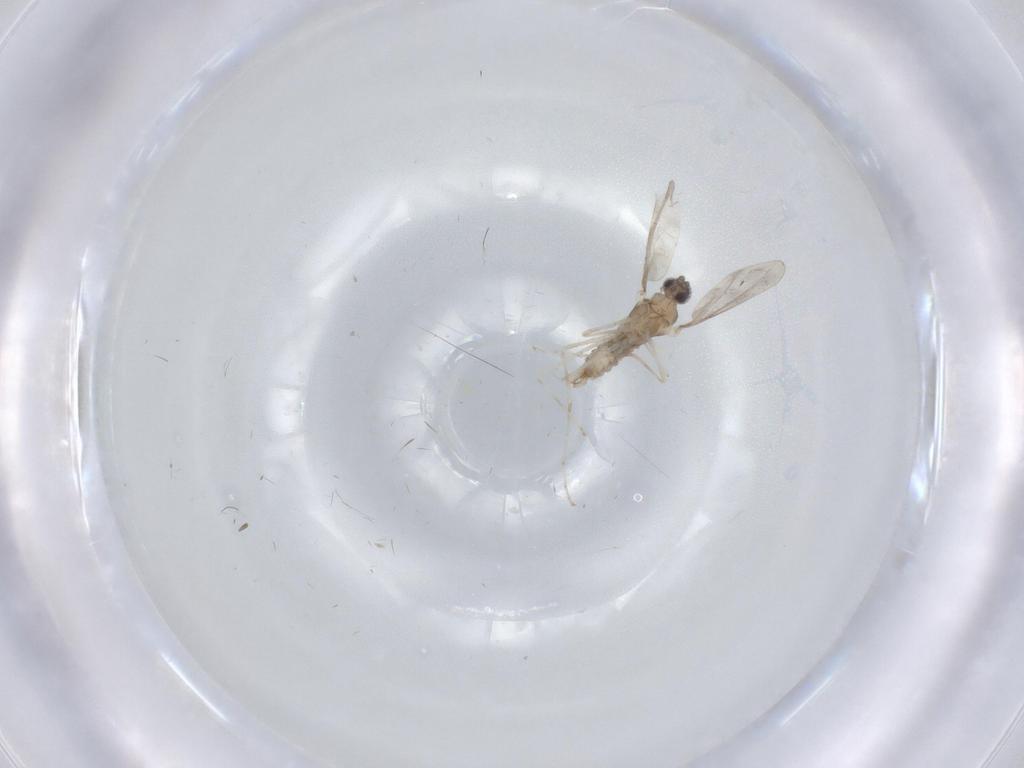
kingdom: Animalia
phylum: Arthropoda
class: Insecta
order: Diptera
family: Cecidomyiidae
